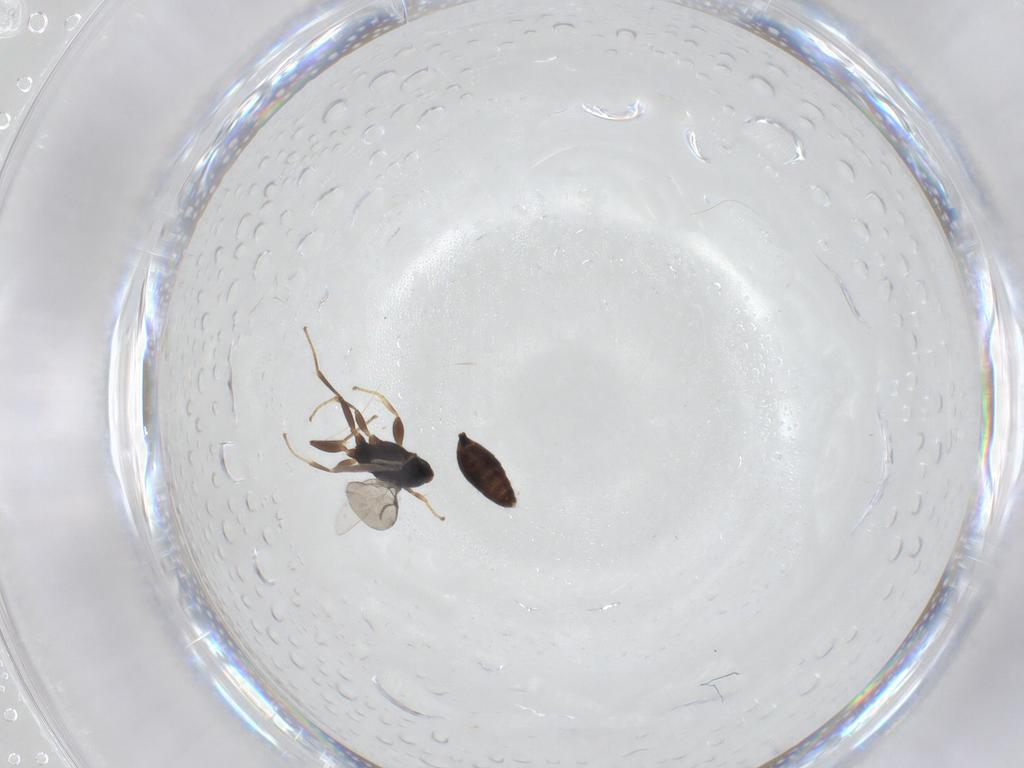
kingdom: Animalia
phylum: Arthropoda
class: Insecta
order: Hymenoptera
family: Bethylidae
